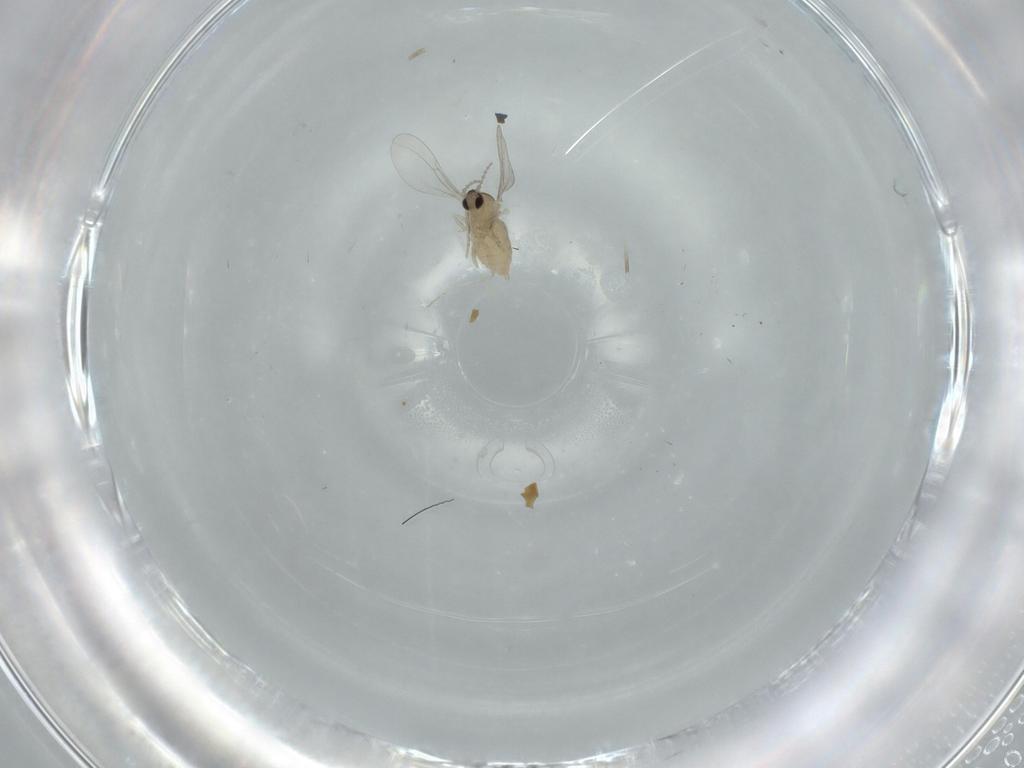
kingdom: Animalia
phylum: Arthropoda
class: Insecta
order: Diptera
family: Cecidomyiidae
